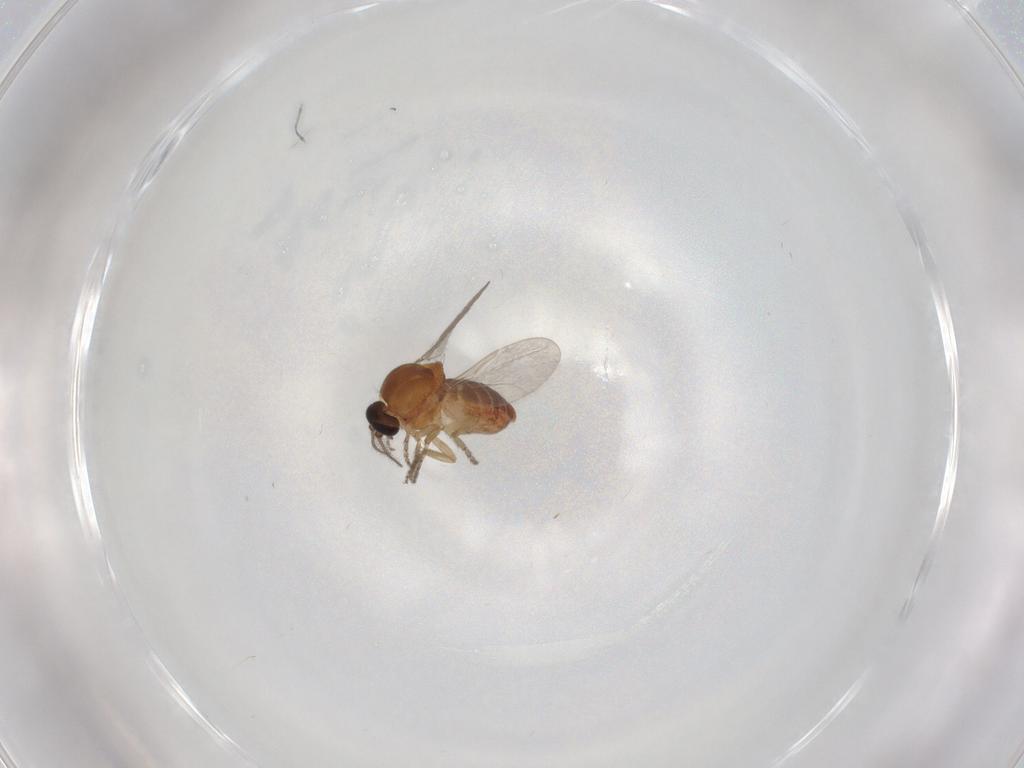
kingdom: Animalia
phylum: Arthropoda
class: Insecta
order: Diptera
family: Ceratopogonidae
